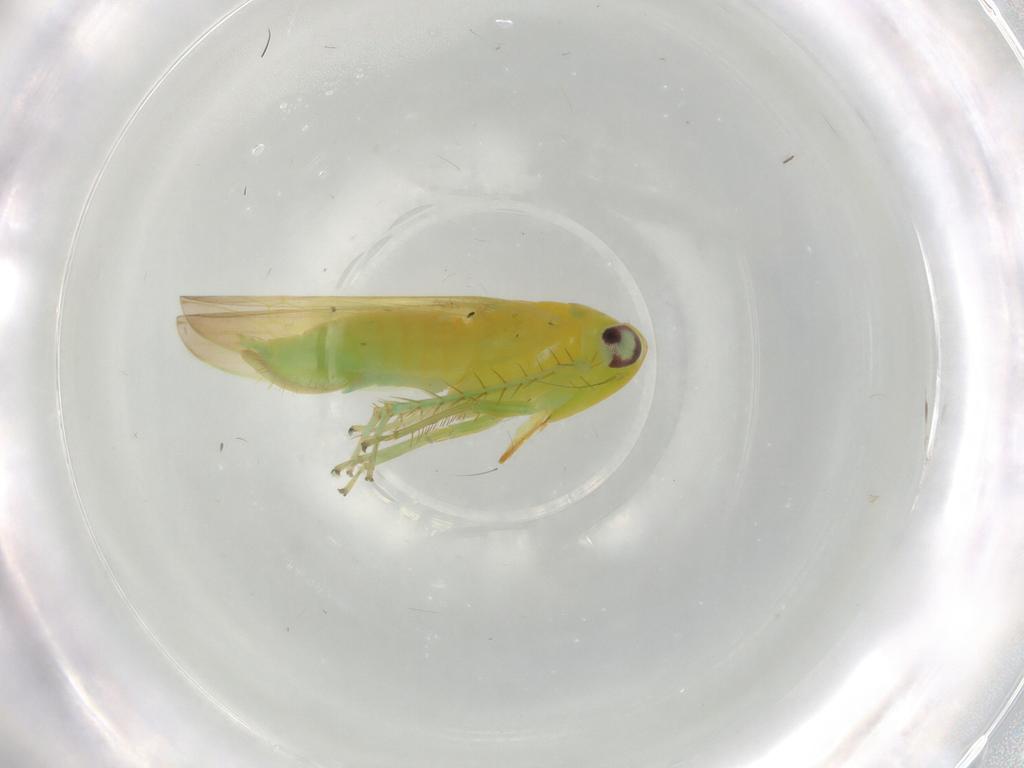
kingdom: Animalia
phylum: Arthropoda
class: Insecta
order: Hemiptera
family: Cicadellidae
